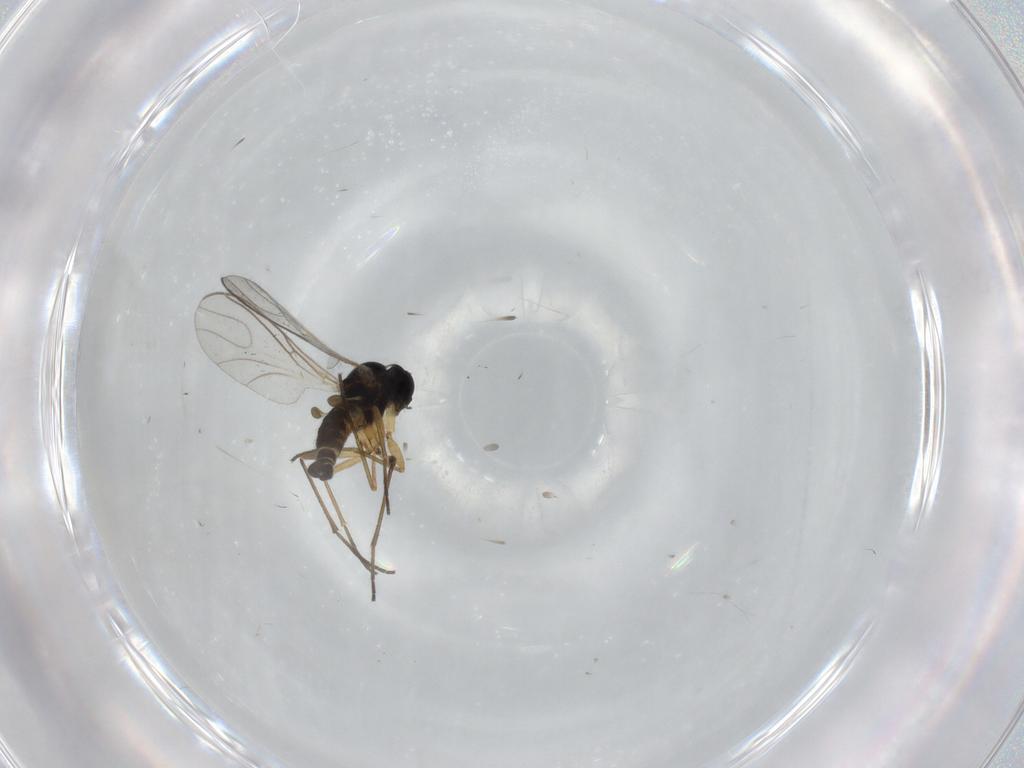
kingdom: Animalia
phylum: Arthropoda
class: Insecta
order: Diptera
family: Sciaridae
